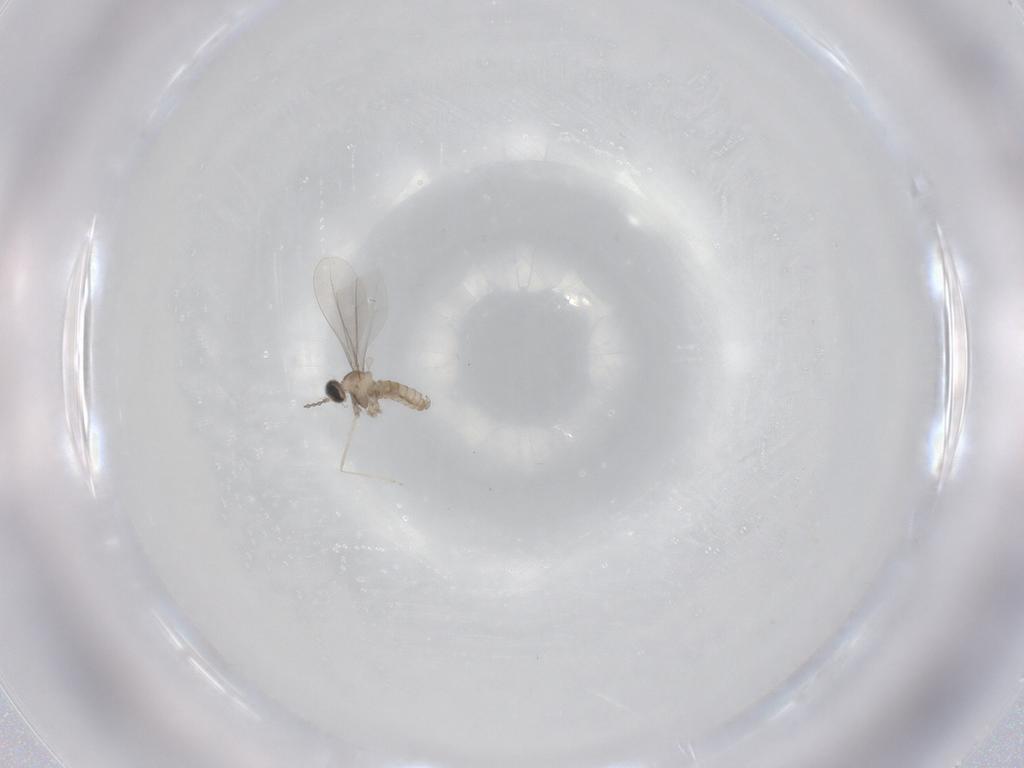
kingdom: Animalia
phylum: Arthropoda
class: Insecta
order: Diptera
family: Cecidomyiidae
